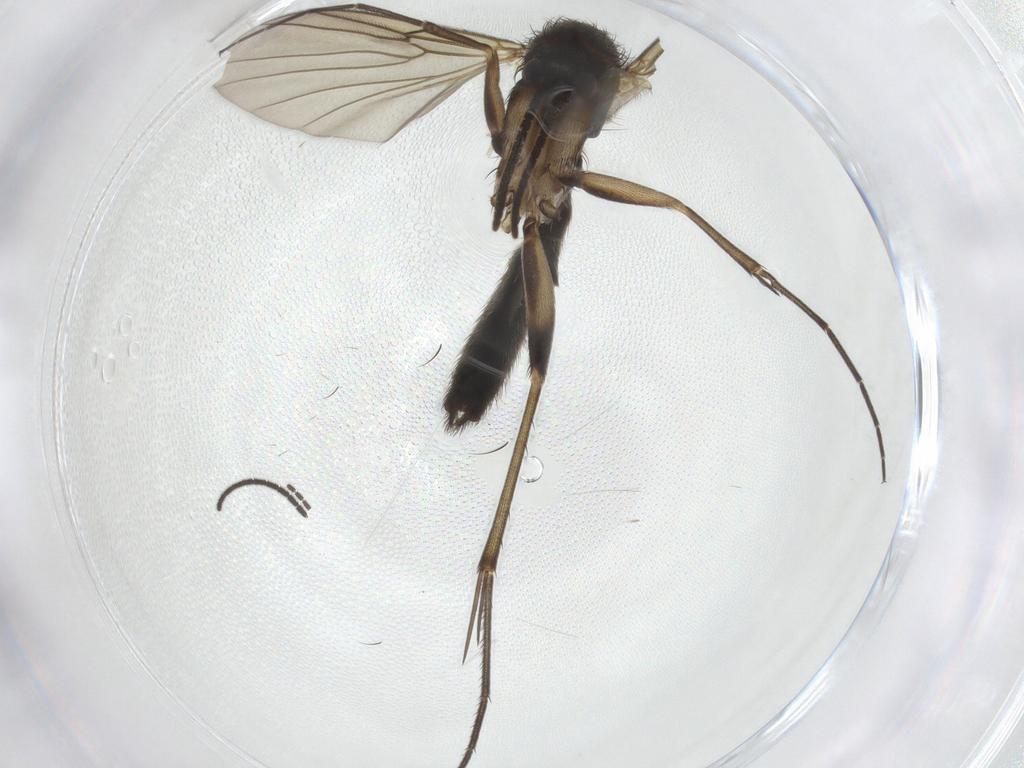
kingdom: Animalia
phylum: Arthropoda
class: Insecta
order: Diptera
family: Mycetophilidae
